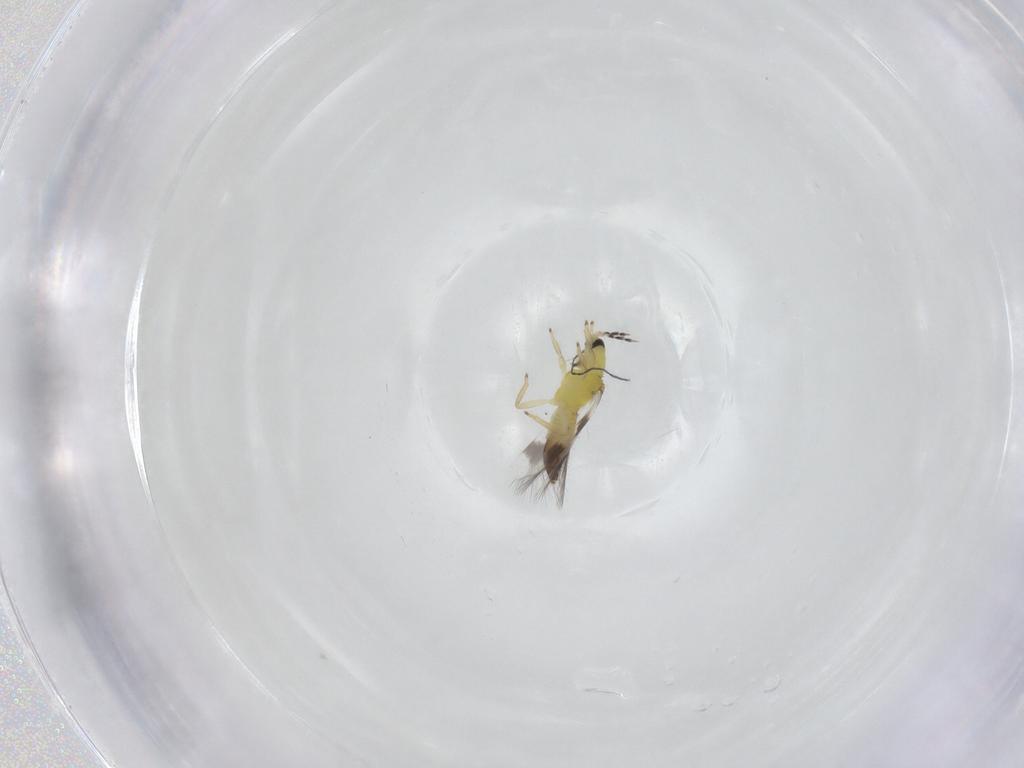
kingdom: Animalia
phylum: Arthropoda
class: Insecta
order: Thysanoptera
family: Aeolothripidae
